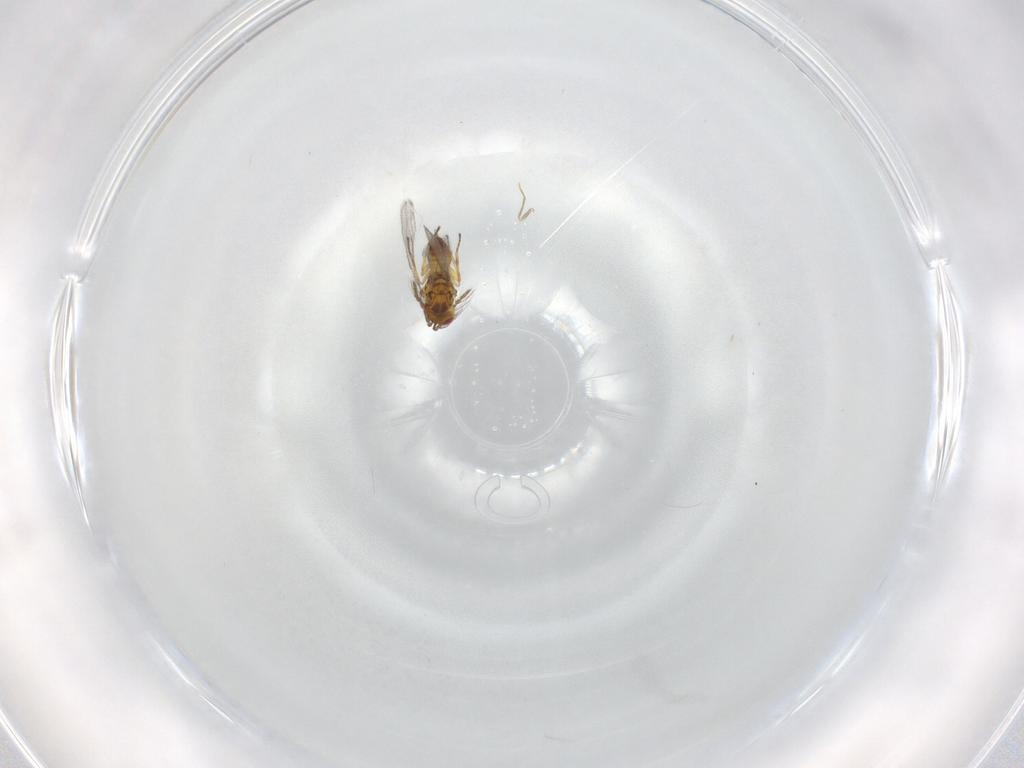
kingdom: Animalia
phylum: Arthropoda
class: Insecta
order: Hymenoptera
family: Eulophidae
